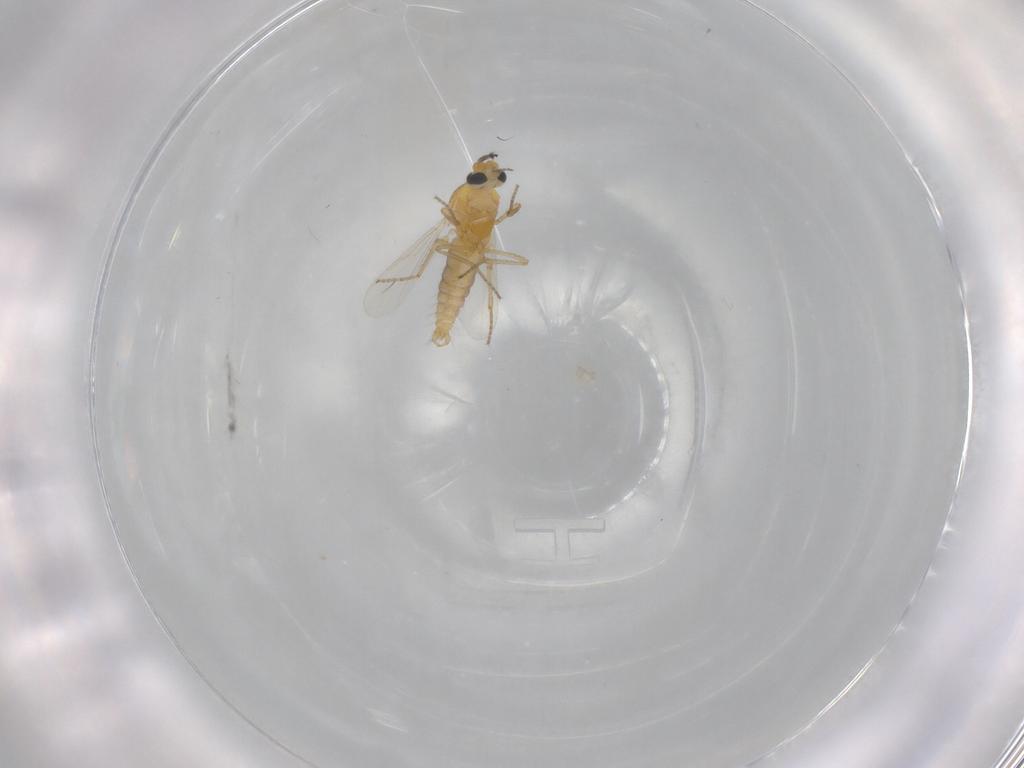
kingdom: Animalia
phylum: Arthropoda
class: Insecta
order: Diptera
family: Ceratopogonidae
